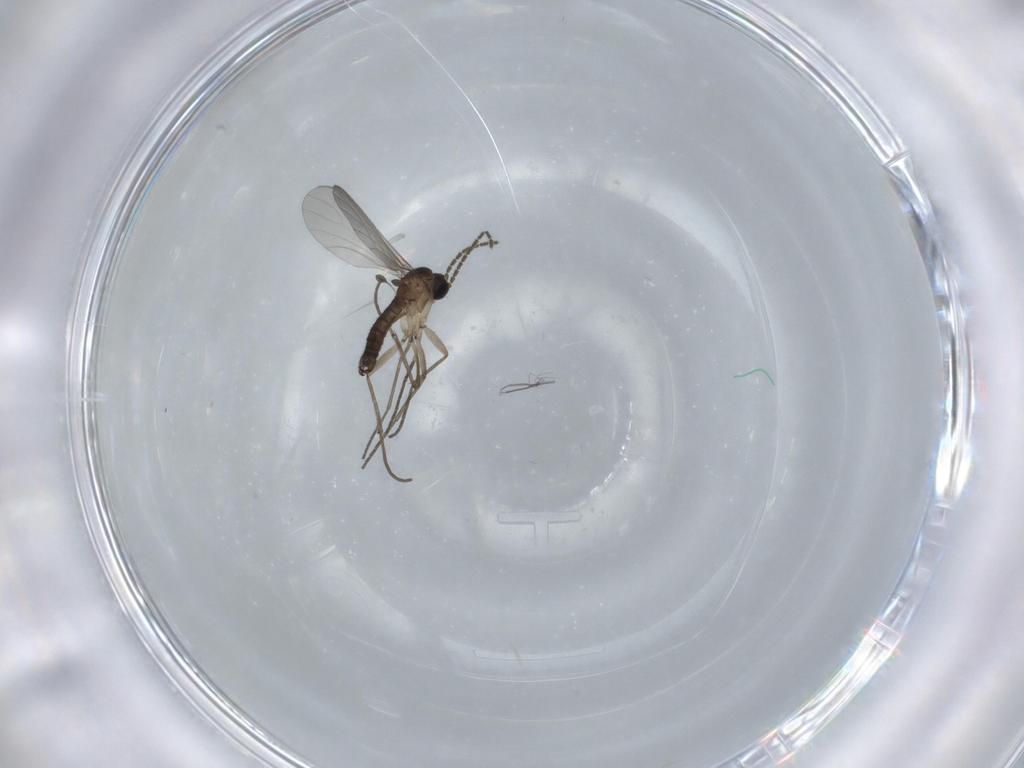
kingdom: Animalia
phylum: Arthropoda
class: Insecta
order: Diptera
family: Sciaridae
